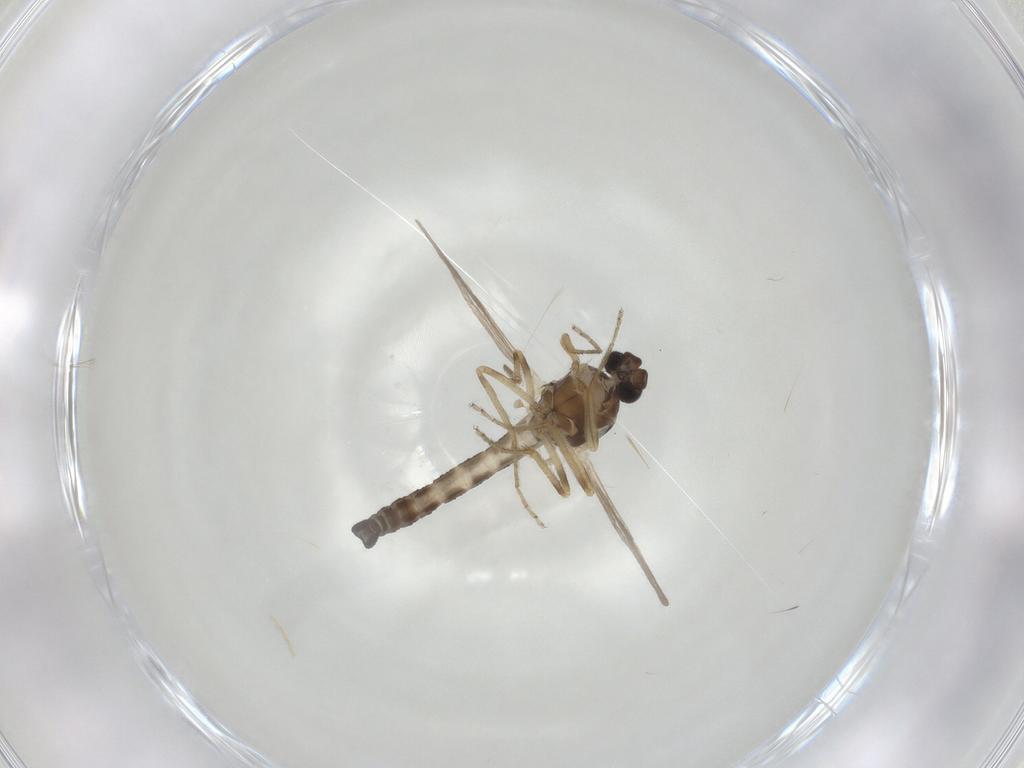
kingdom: Animalia
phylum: Arthropoda
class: Insecta
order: Diptera
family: Ceratopogonidae
